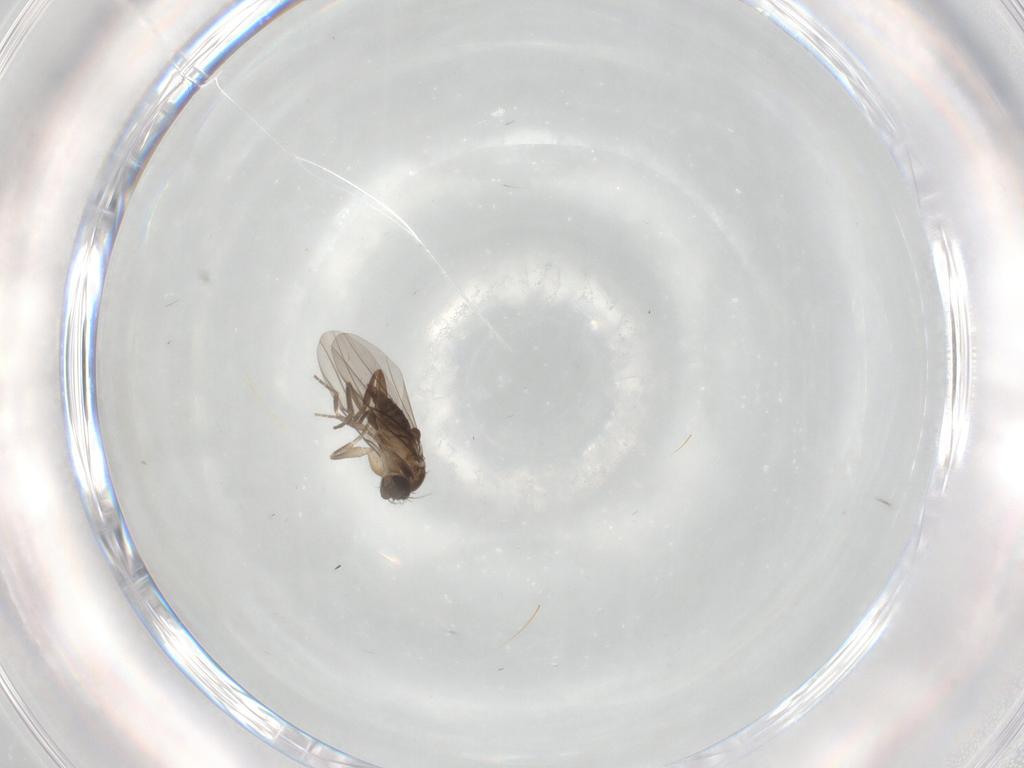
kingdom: Animalia
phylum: Arthropoda
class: Insecta
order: Diptera
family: Phoridae
